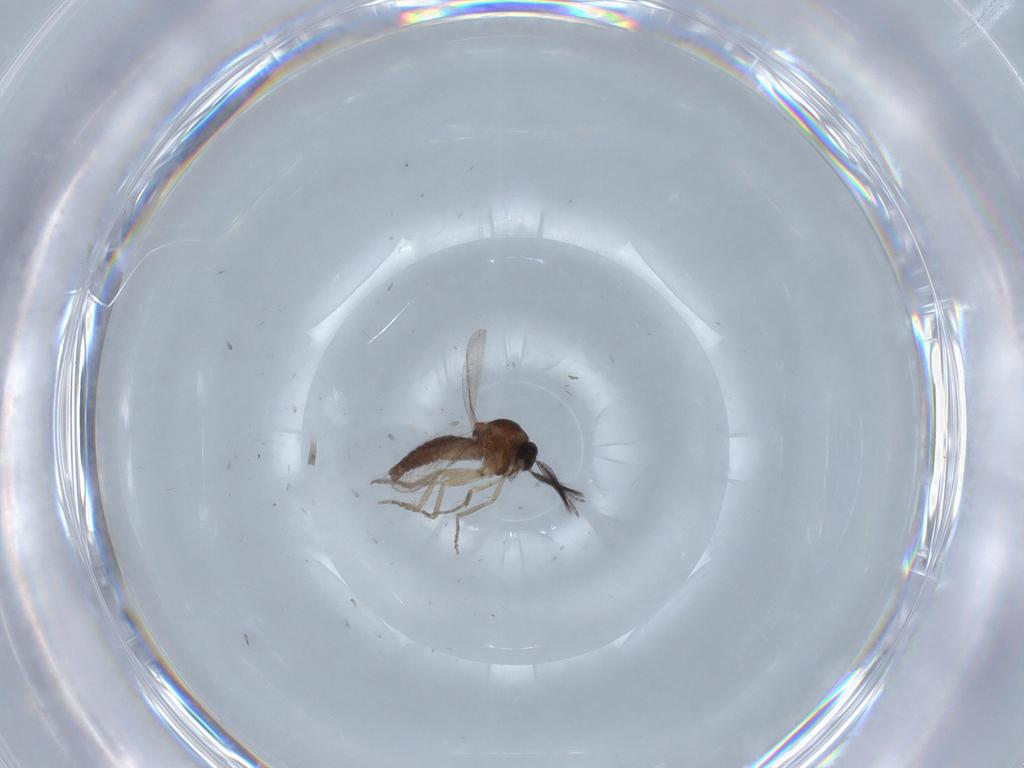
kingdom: Animalia
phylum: Arthropoda
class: Insecta
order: Diptera
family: Ceratopogonidae
